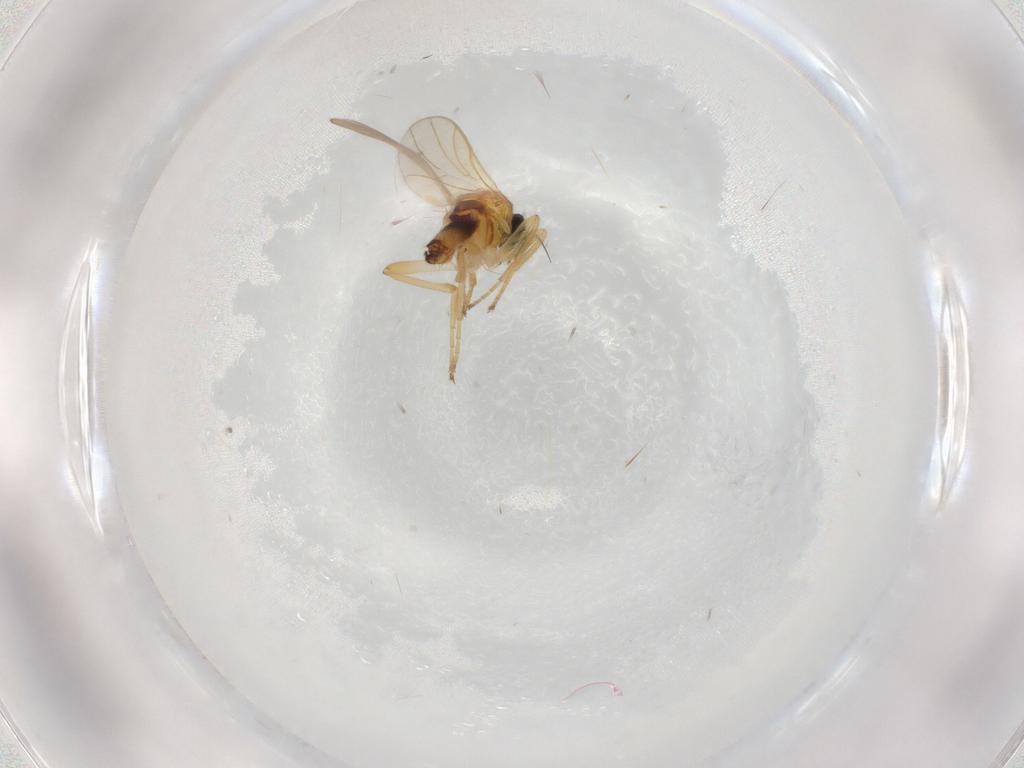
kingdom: Animalia
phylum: Arthropoda
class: Insecta
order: Diptera
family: Hybotidae
